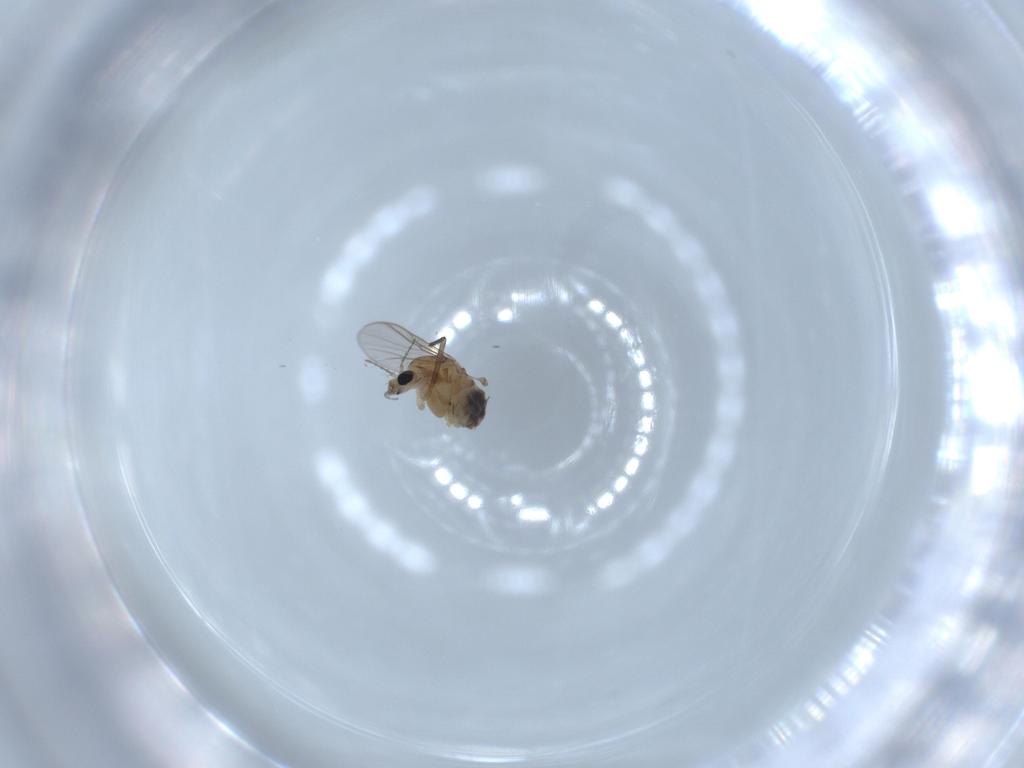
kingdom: Animalia
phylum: Arthropoda
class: Insecta
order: Diptera
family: Chironomidae
